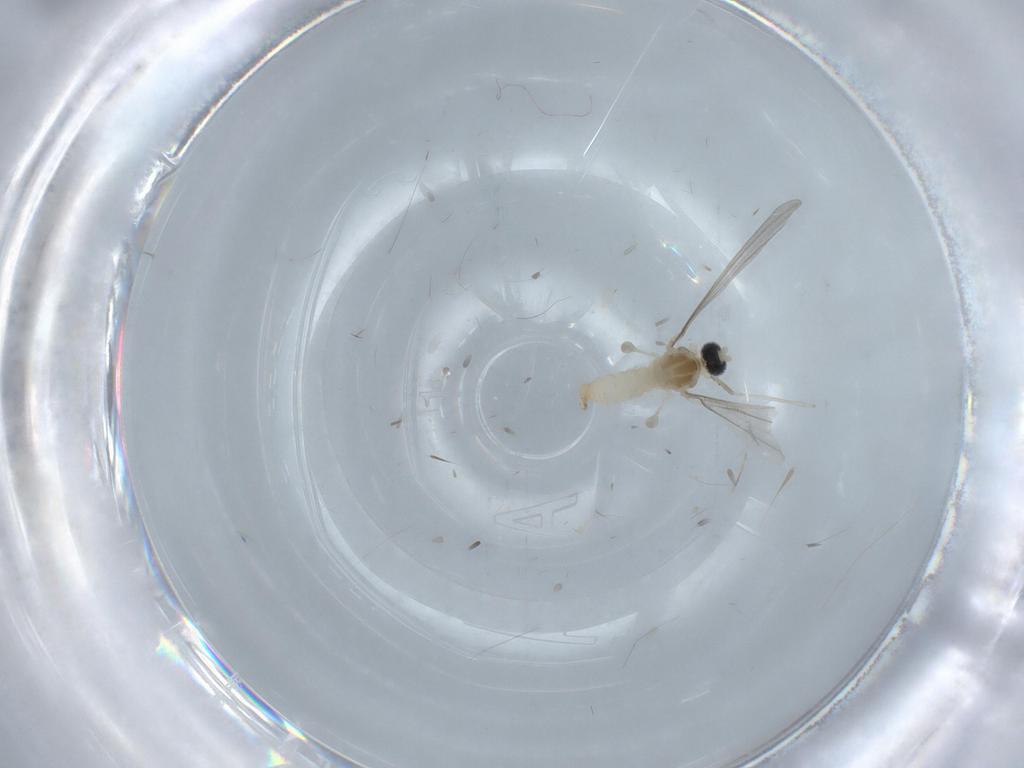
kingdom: Animalia
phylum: Arthropoda
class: Insecta
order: Diptera
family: Cecidomyiidae
